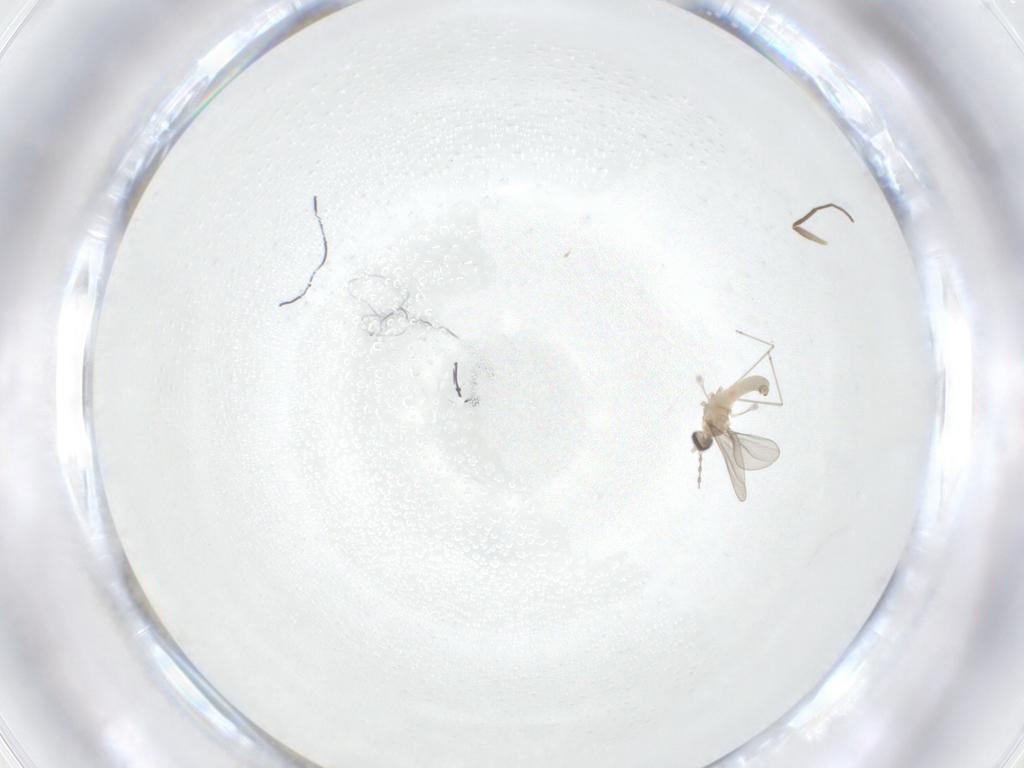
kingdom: Animalia
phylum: Arthropoda
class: Insecta
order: Diptera
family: Cecidomyiidae
